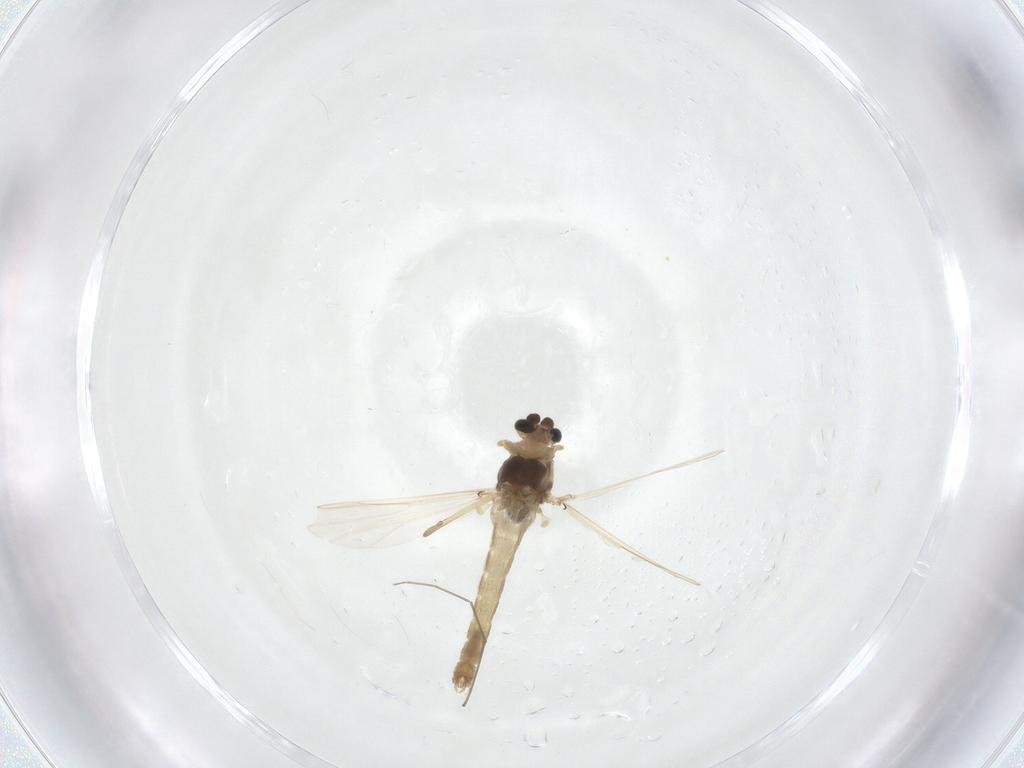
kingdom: Animalia
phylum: Arthropoda
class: Insecta
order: Diptera
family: Chironomidae
